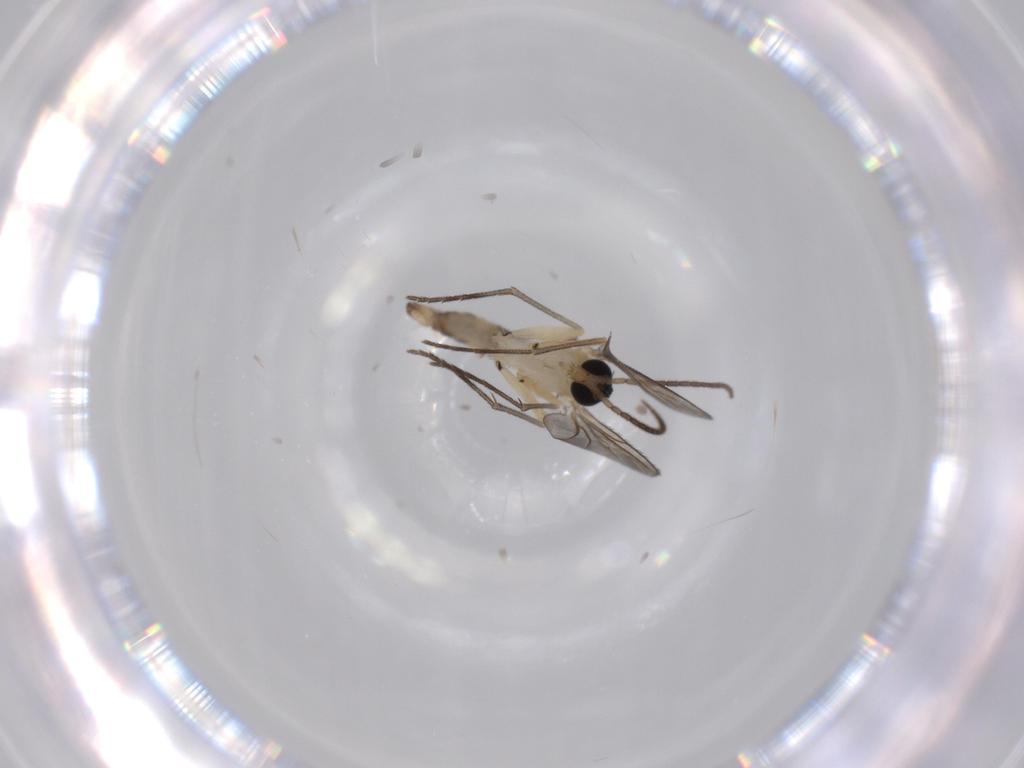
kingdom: Animalia
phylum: Arthropoda
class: Insecta
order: Diptera
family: Sciaridae
